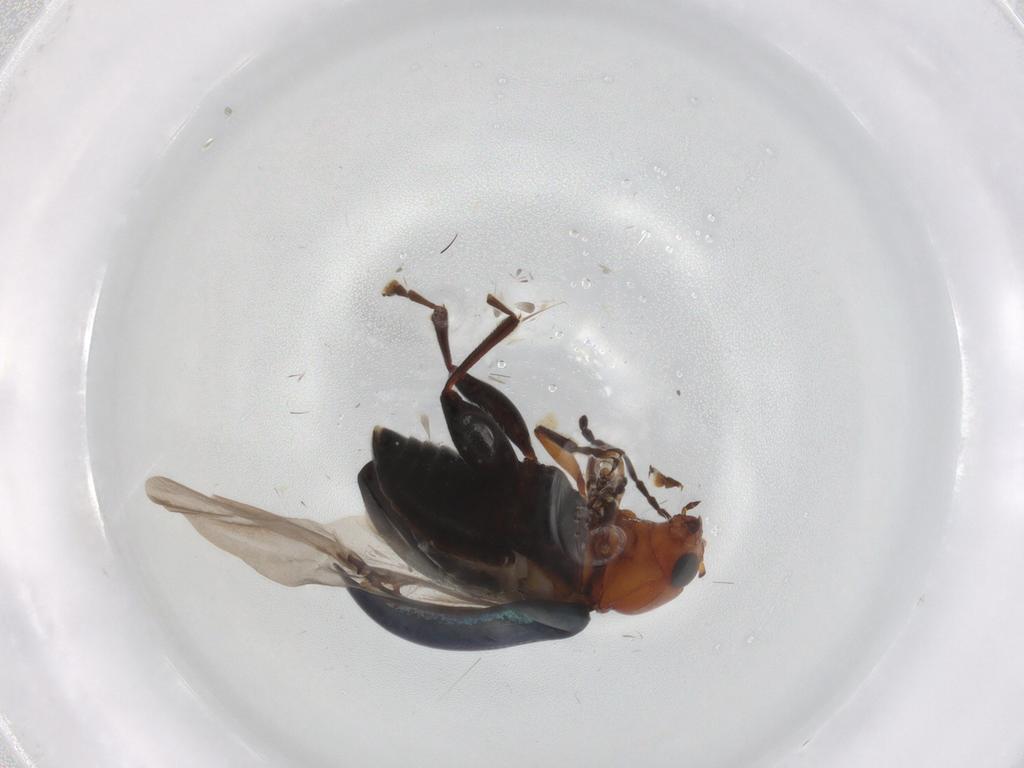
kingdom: Animalia
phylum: Arthropoda
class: Insecta
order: Coleoptera
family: Chrysomelidae
